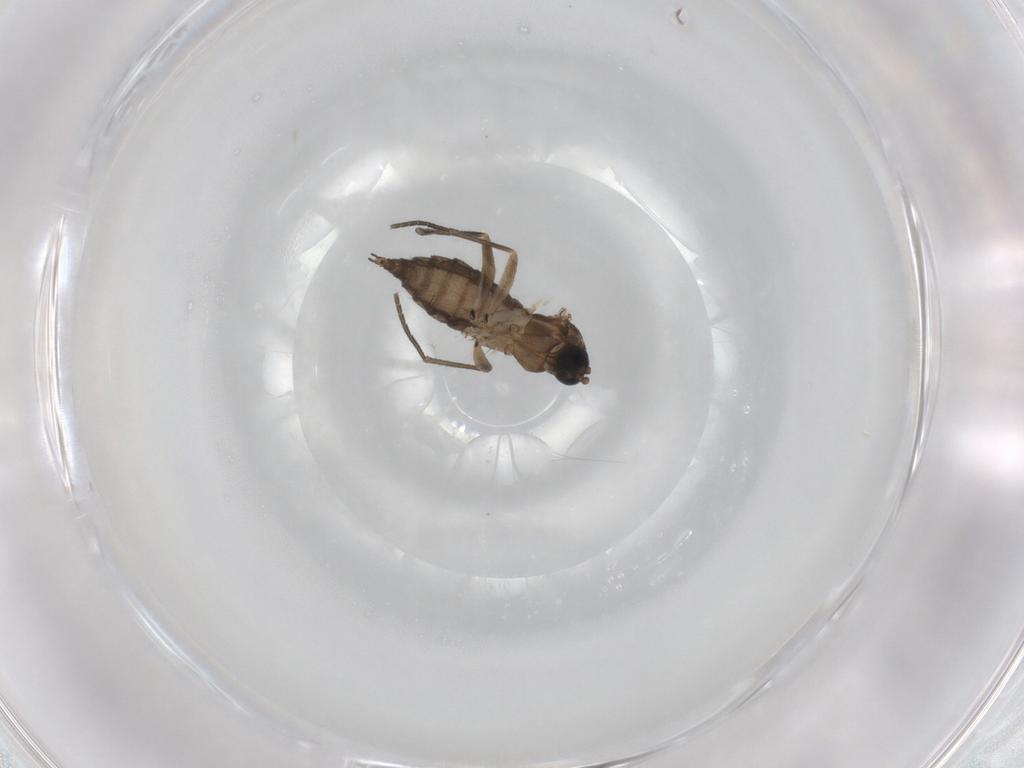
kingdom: Animalia
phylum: Arthropoda
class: Insecta
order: Diptera
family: Sciaridae
